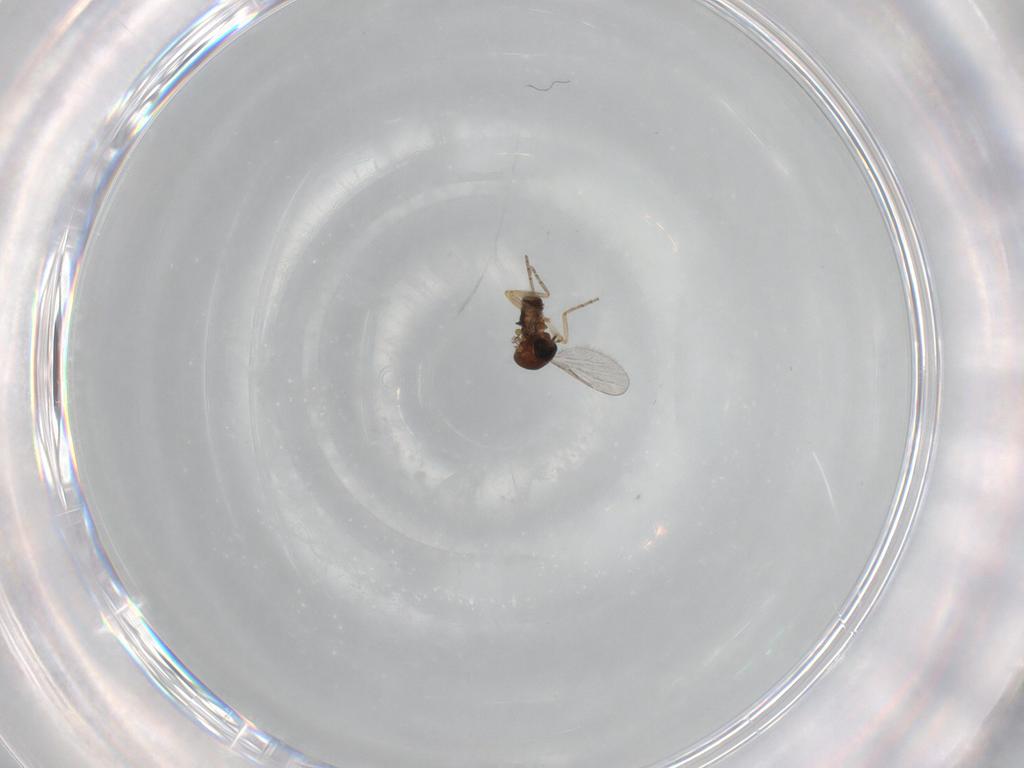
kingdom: Animalia
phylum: Arthropoda
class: Insecta
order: Diptera
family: Ceratopogonidae
